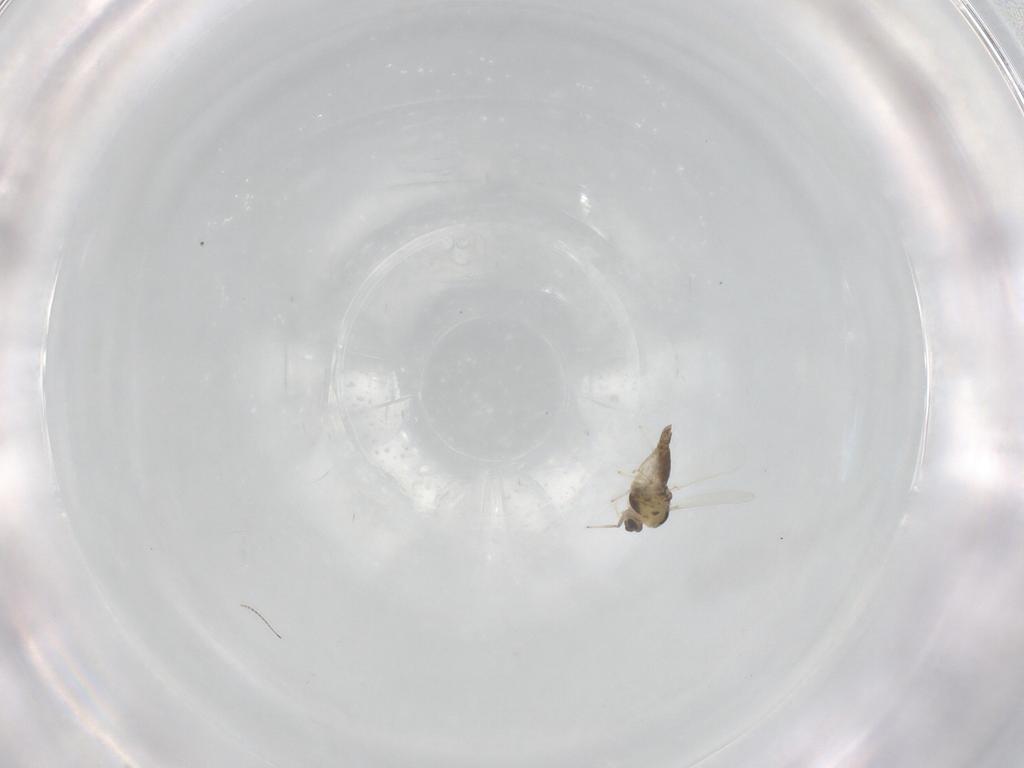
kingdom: Animalia
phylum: Arthropoda
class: Insecta
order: Diptera
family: Chironomidae
